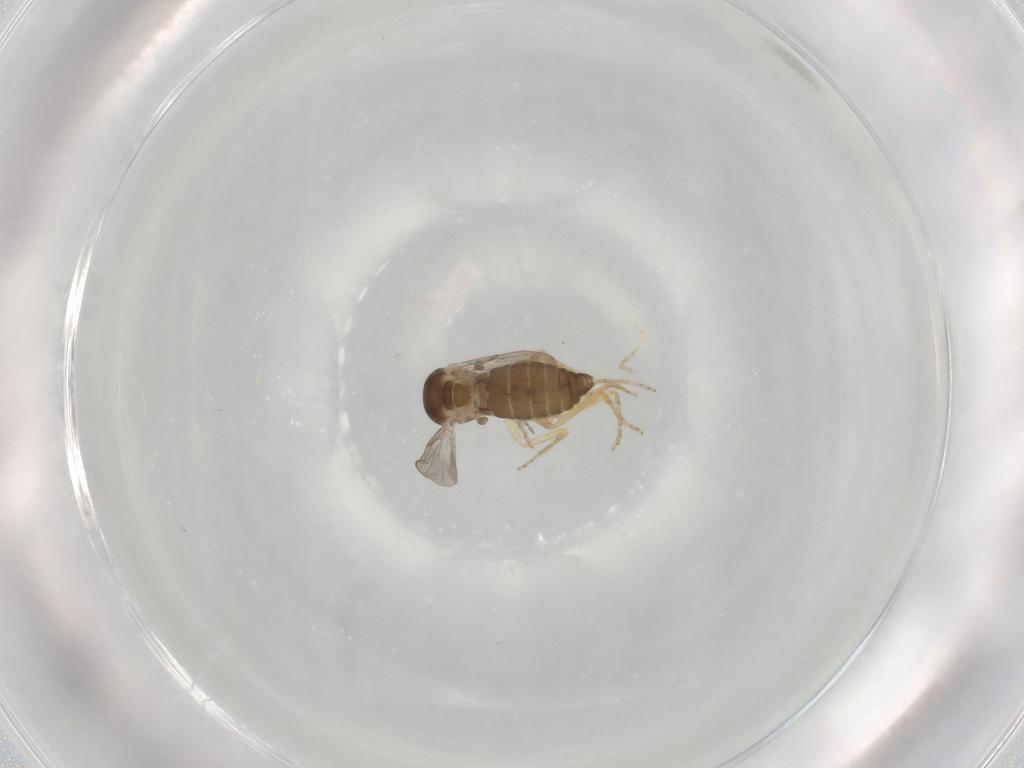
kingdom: Animalia
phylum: Arthropoda
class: Insecta
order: Diptera
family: Ceratopogonidae
